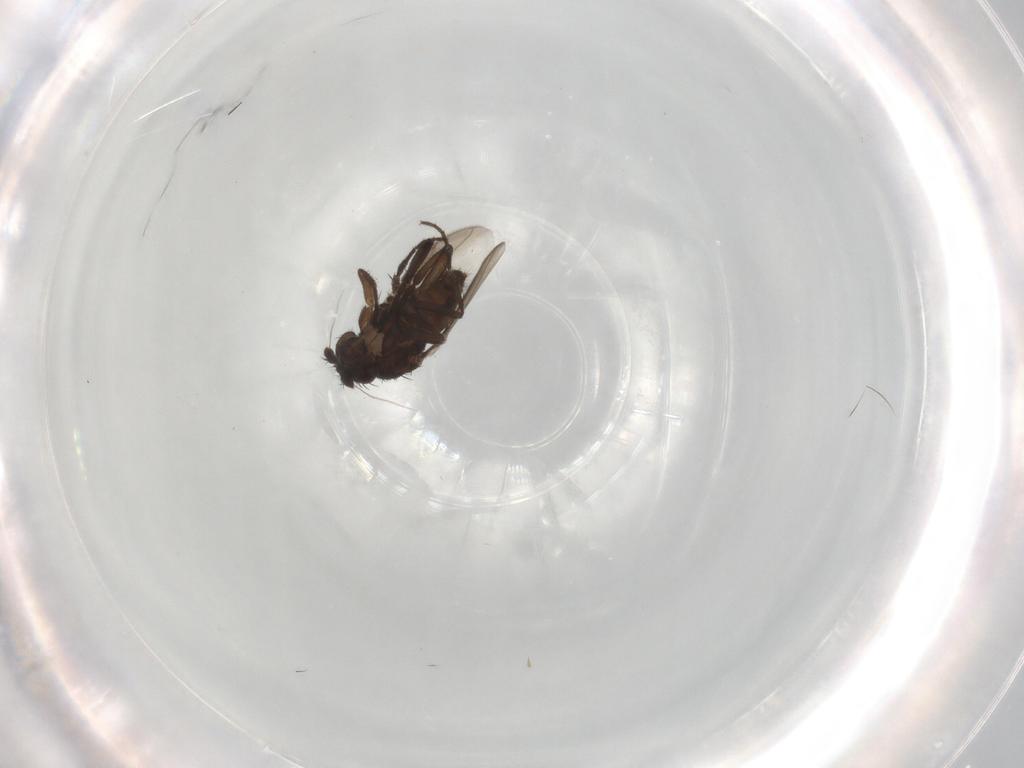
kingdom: Animalia
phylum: Arthropoda
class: Insecta
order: Diptera
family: Sphaeroceridae
